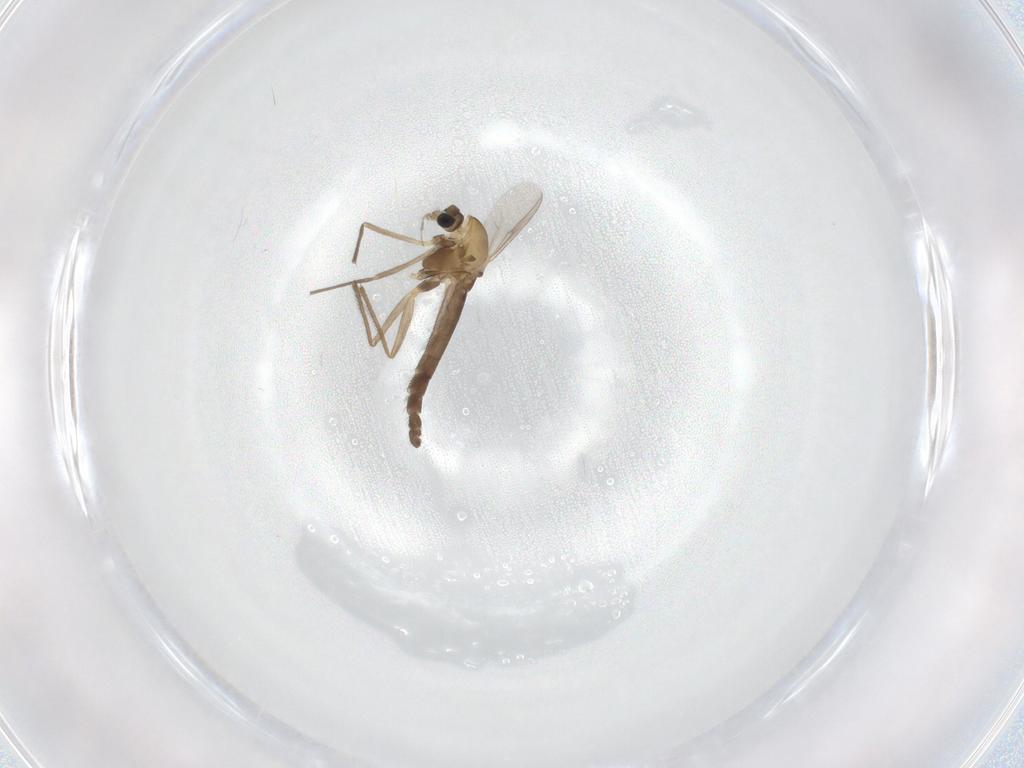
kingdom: Animalia
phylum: Arthropoda
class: Insecta
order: Diptera
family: Chironomidae
